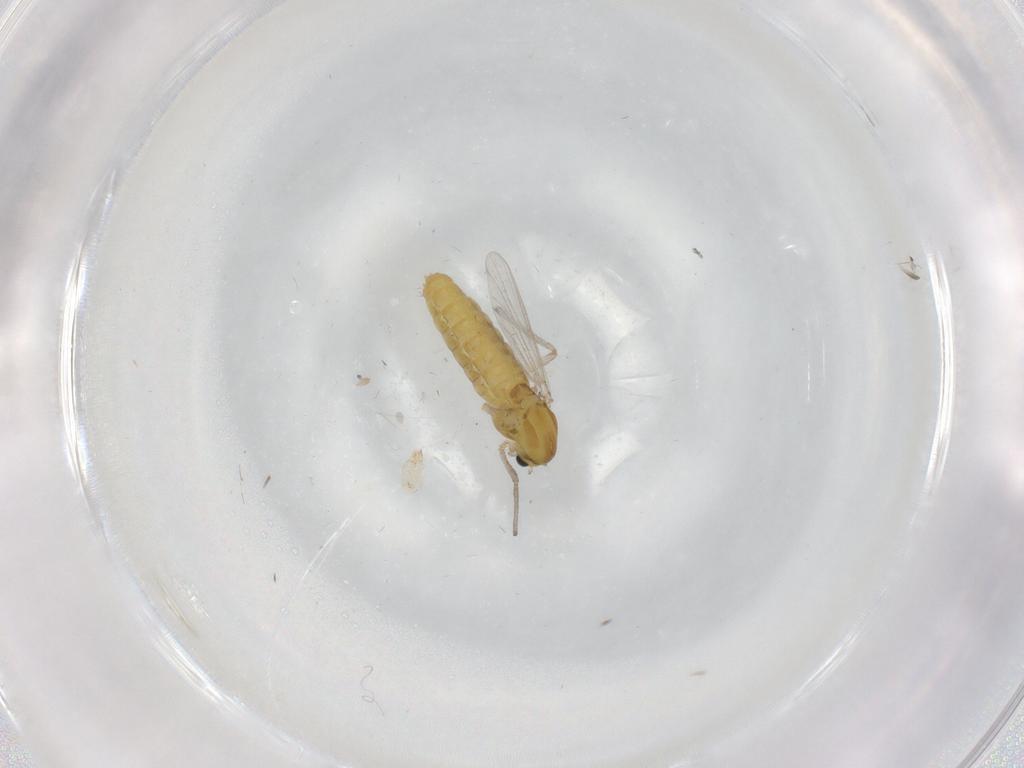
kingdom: Animalia
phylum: Arthropoda
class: Insecta
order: Diptera
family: Chironomidae
